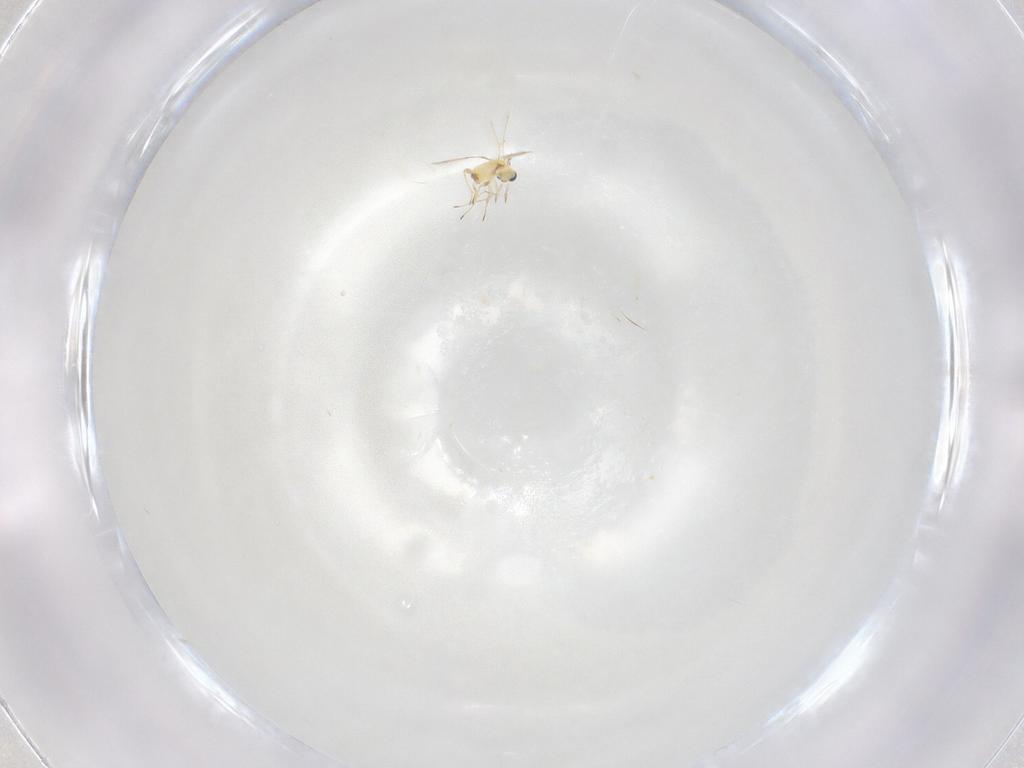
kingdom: Animalia
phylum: Arthropoda
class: Insecta
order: Hymenoptera
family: Trichogrammatidae
